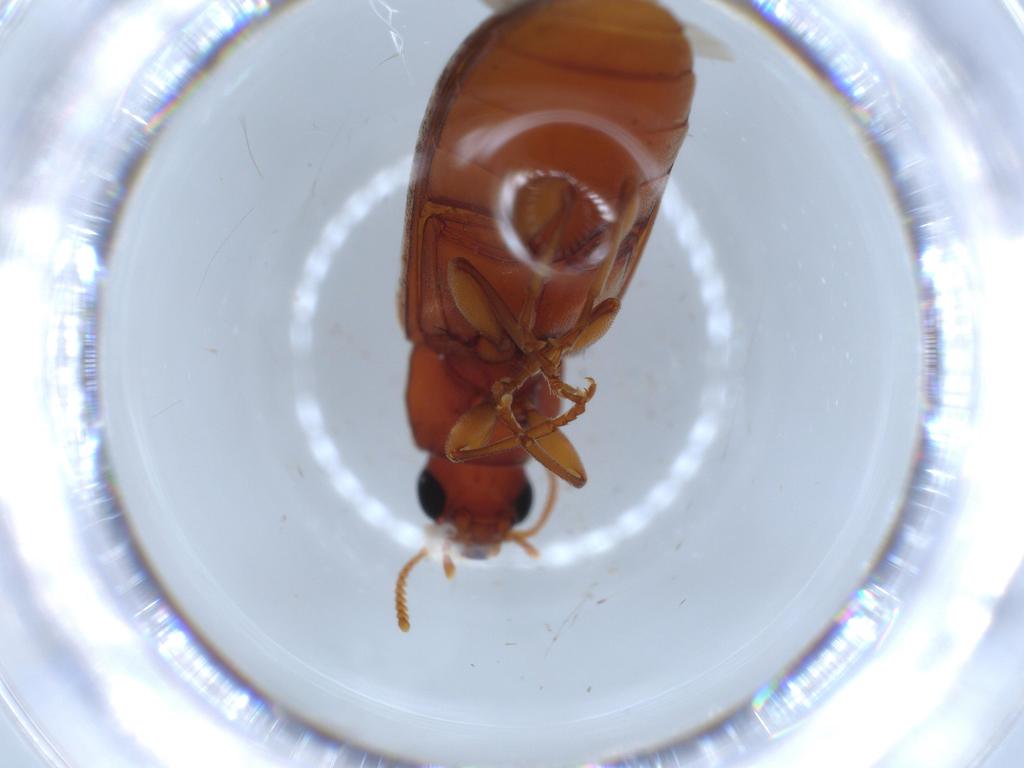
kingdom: Animalia
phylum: Arthropoda
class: Insecta
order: Coleoptera
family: Mycteridae
